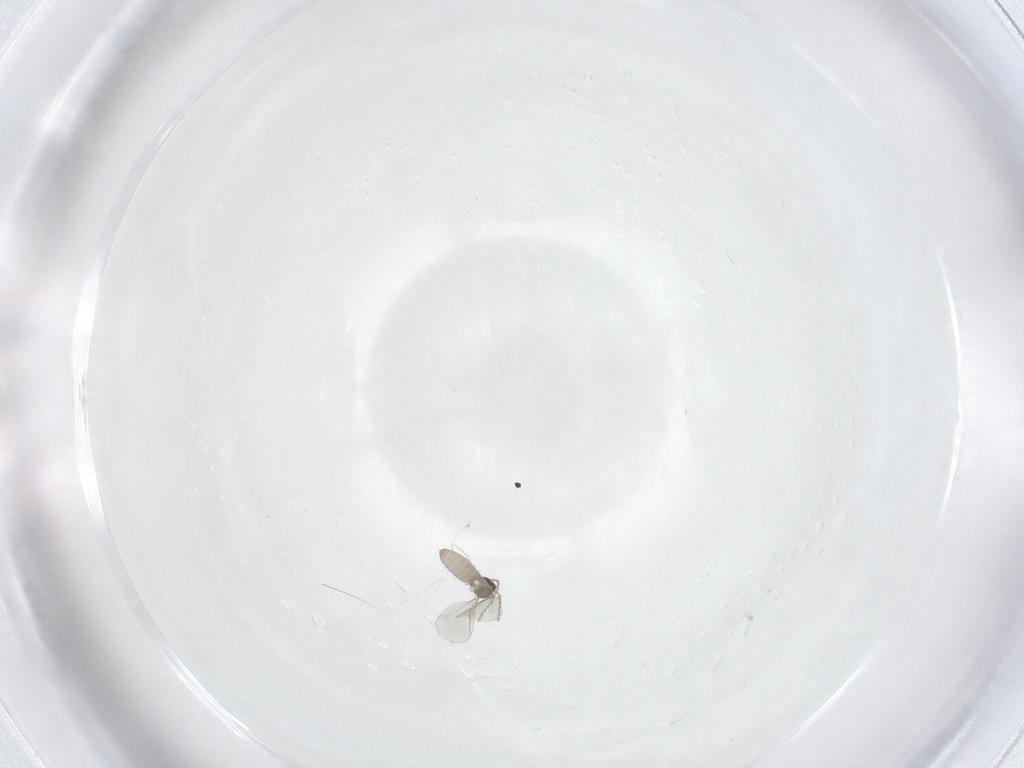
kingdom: Animalia
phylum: Arthropoda
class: Insecta
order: Diptera
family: Cecidomyiidae
